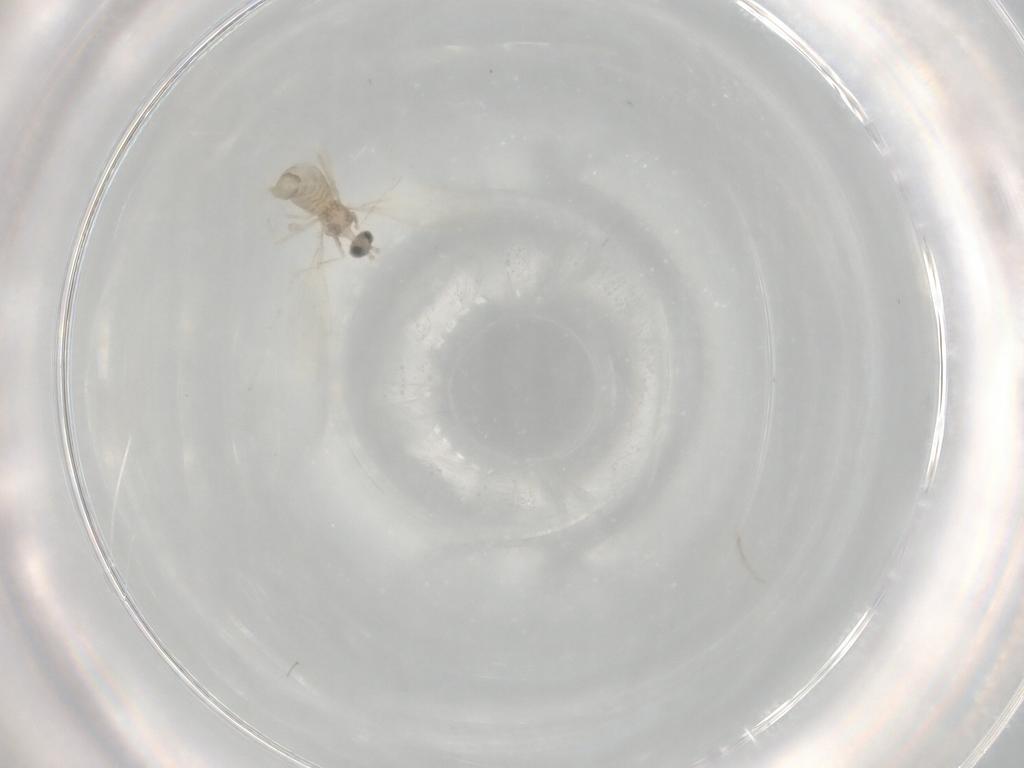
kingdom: Animalia
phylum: Arthropoda
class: Insecta
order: Diptera
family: Cecidomyiidae
